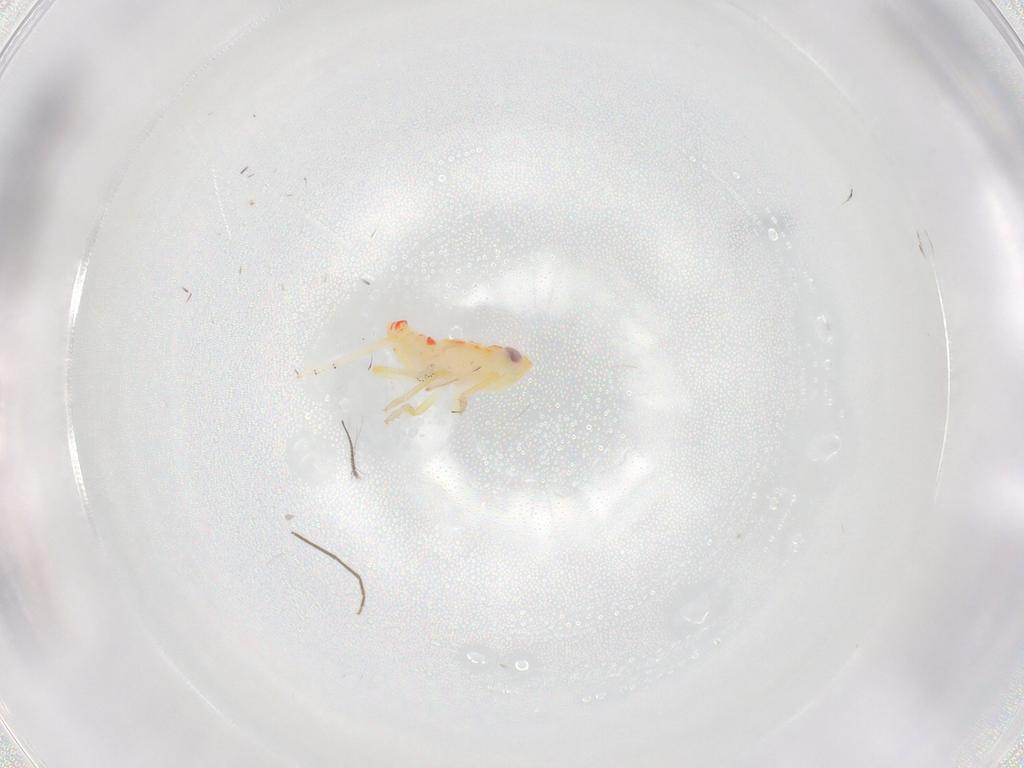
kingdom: Animalia
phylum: Arthropoda
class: Insecta
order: Hemiptera
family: Tropiduchidae
